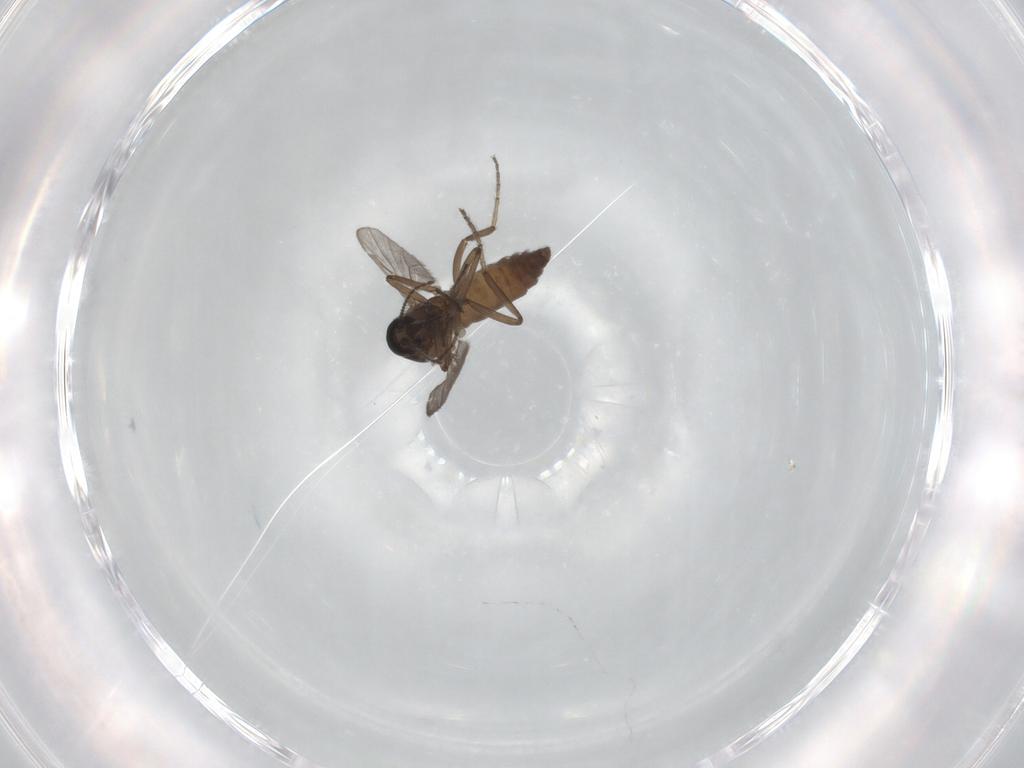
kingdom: Animalia
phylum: Arthropoda
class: Insecta
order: Diptera
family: Ceratopogonidae
